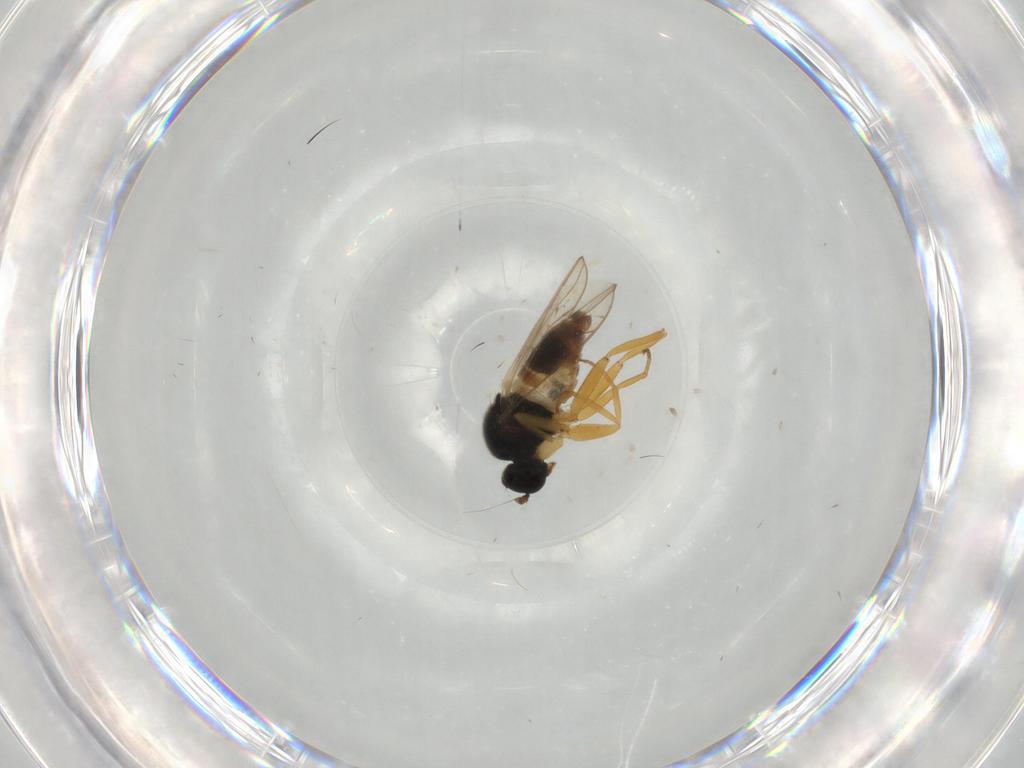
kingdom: Animalia
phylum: Arthropoda
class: Insecta
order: Diptera
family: Hybotidae
